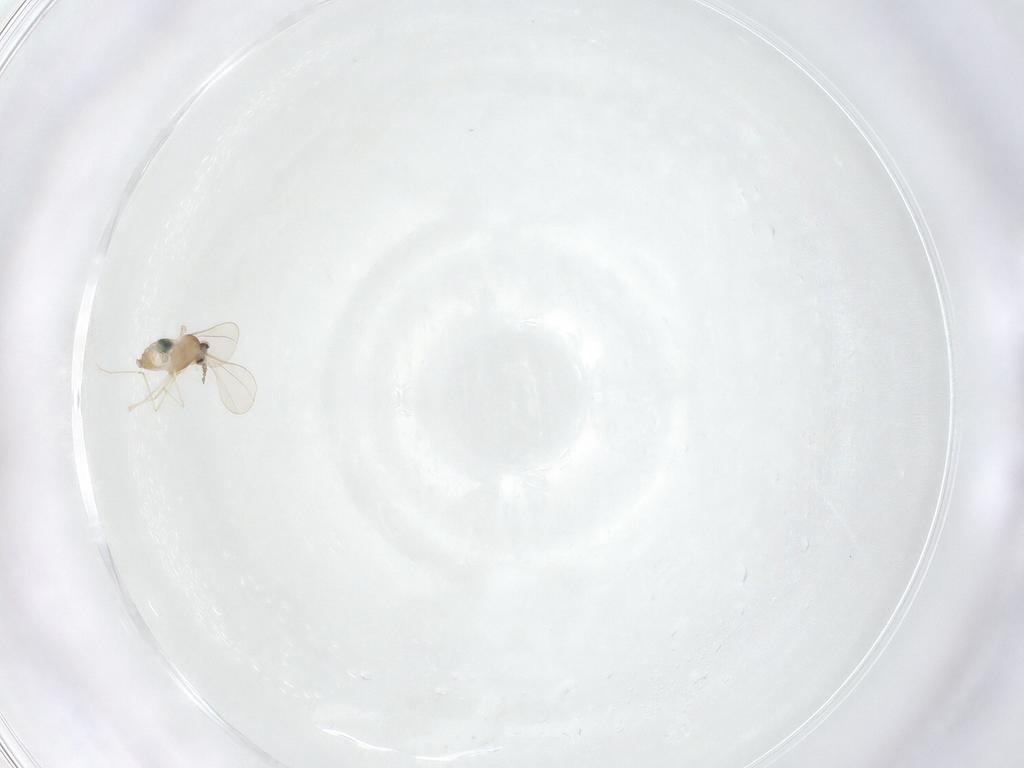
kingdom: Animalia
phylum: Arthropoda
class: Insecta
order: Diptera
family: Cecidomyiidae
